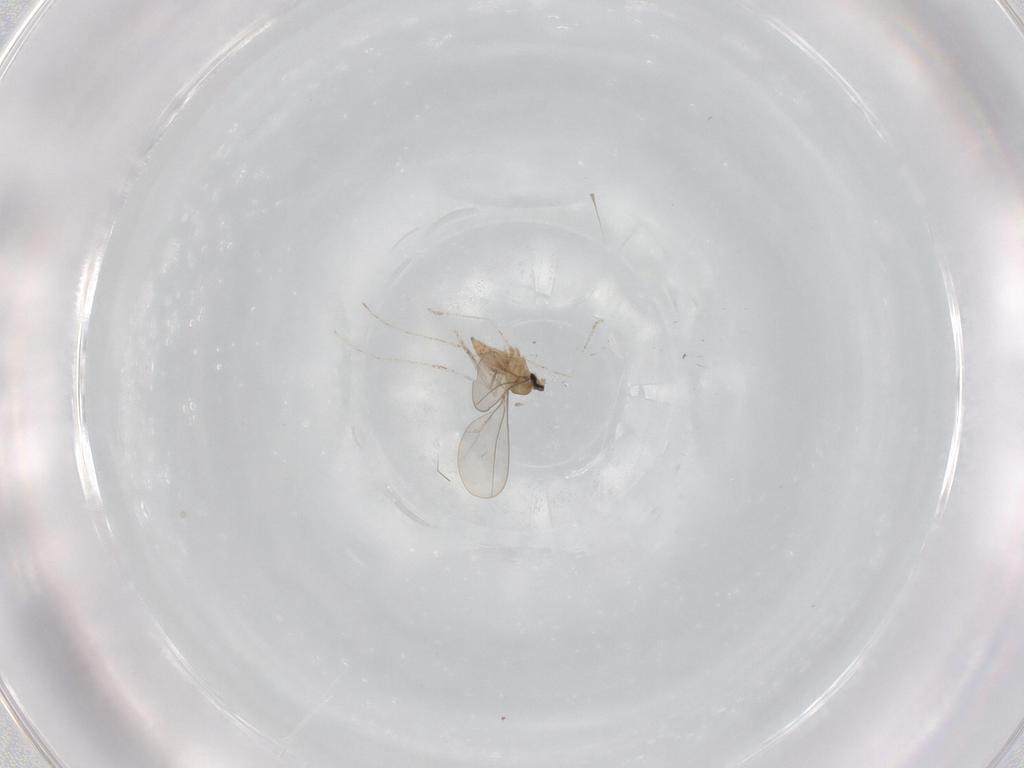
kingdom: Animalia
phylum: Arthropoda
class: Insecta
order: Diptera
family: Cecidomyiidae
